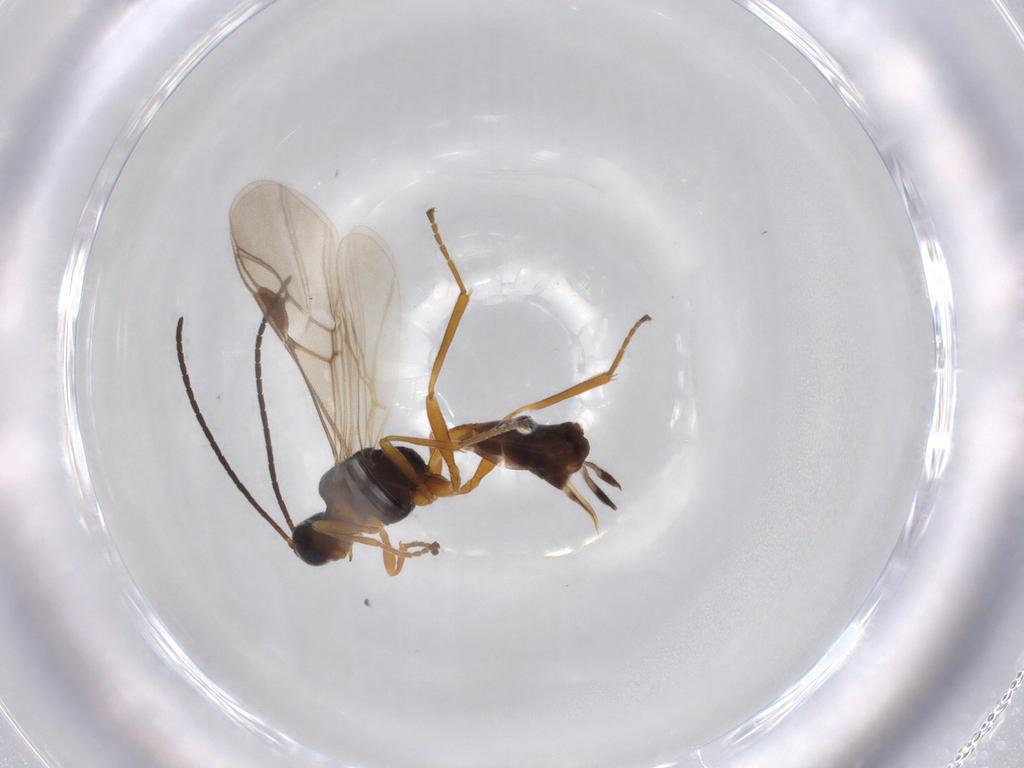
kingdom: Animalia
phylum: Arthropoda
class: Insecta
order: Hymenoptera
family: Braconidae
